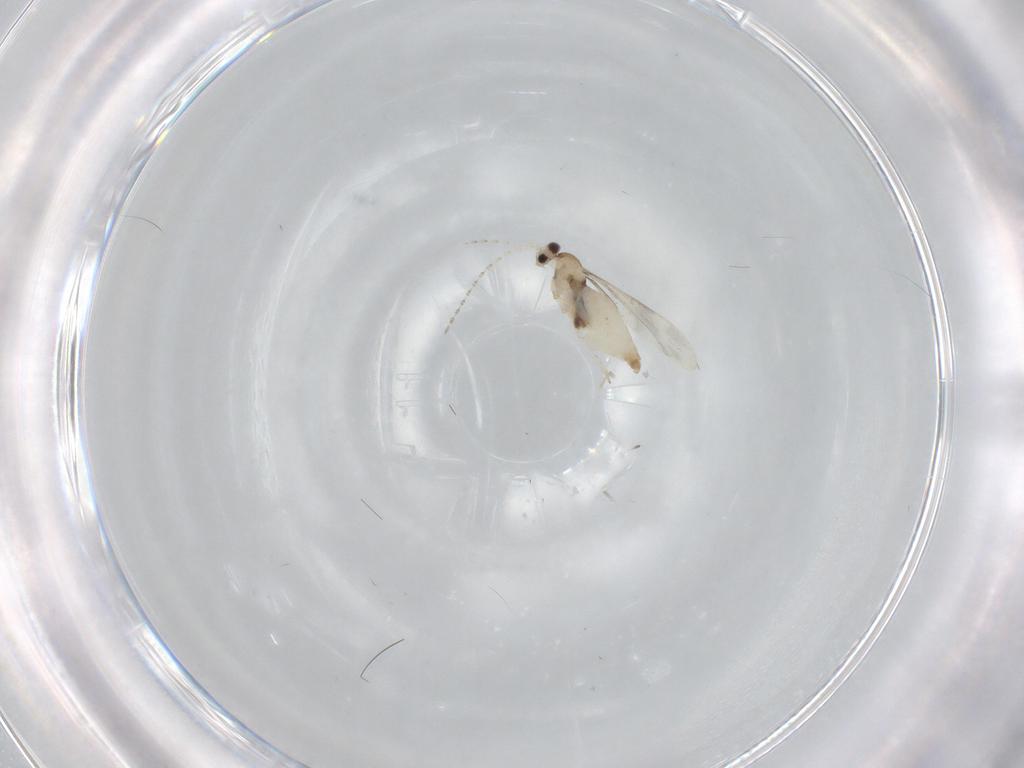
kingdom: Animalia
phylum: Arthropoda
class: Insecta
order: Diptera
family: Cecidomyiidae
